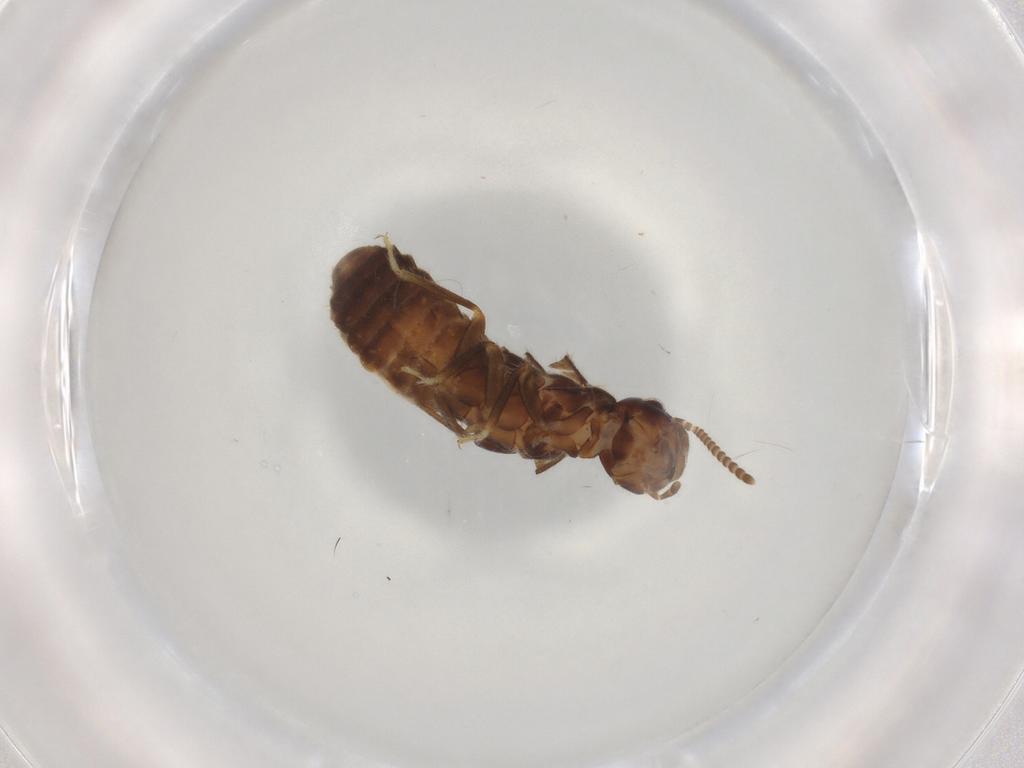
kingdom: Animalia
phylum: Arthropoda
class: Insecta
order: Blattodea
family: Termitidae
